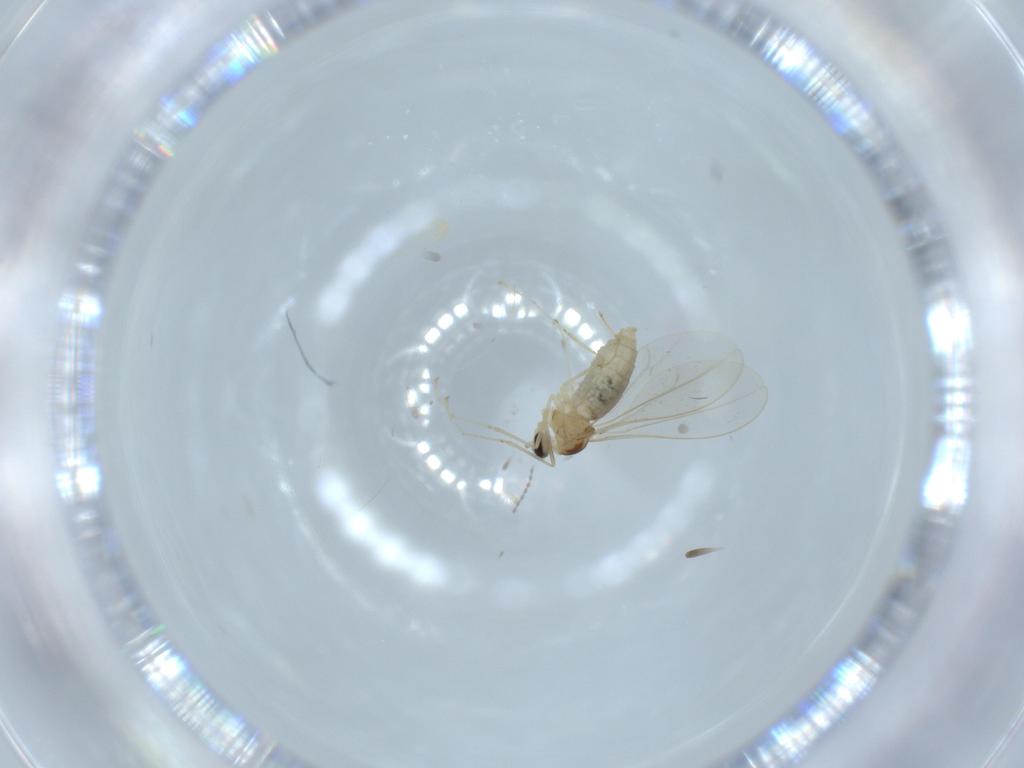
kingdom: Animalia
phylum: Arthropoda
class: Insecta
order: Diptera
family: Cecidomyiidae
